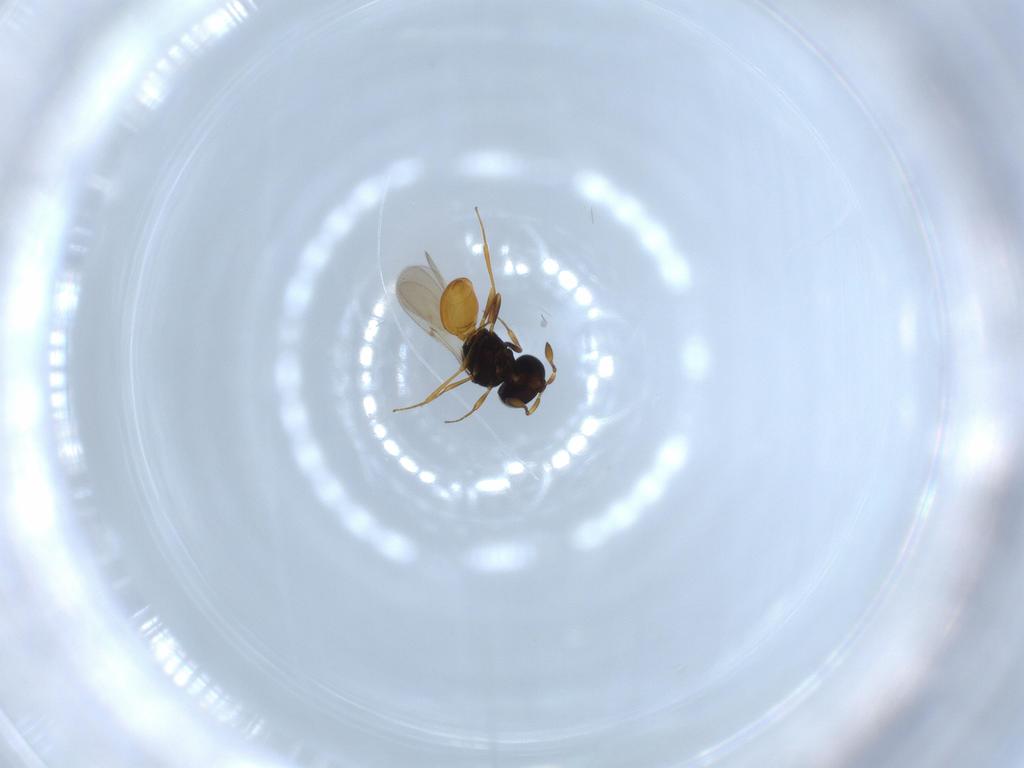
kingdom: Animalia
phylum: Arthropoda
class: Insecta
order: Hymenoptera
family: Scelionidae
